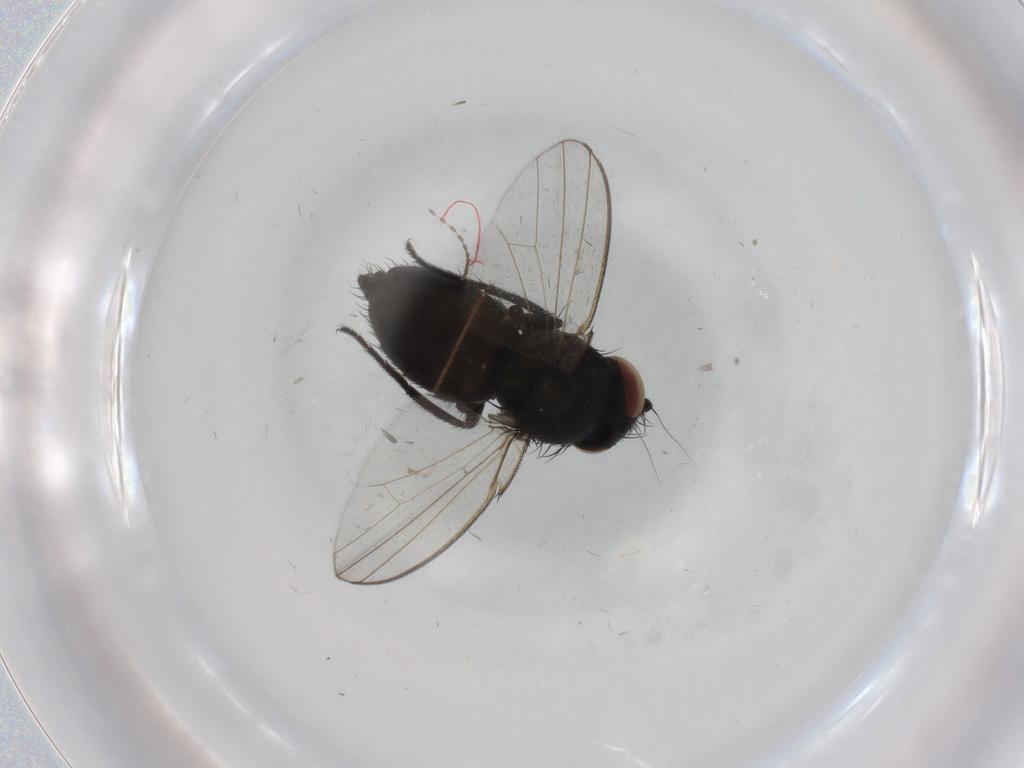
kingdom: Animalia
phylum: Arthropoda
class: Insecta
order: Diptera
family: Milichiidae
